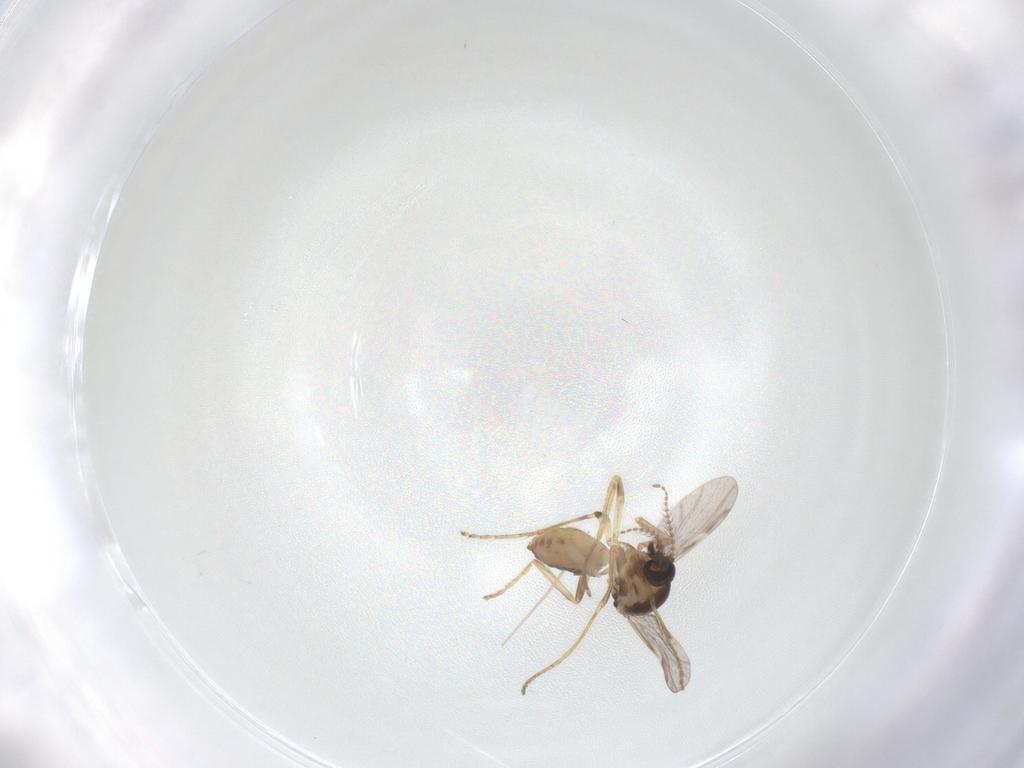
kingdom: Animalia
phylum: Arthropoda
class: Insecta
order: Diptera
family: Ceratopogonidae
